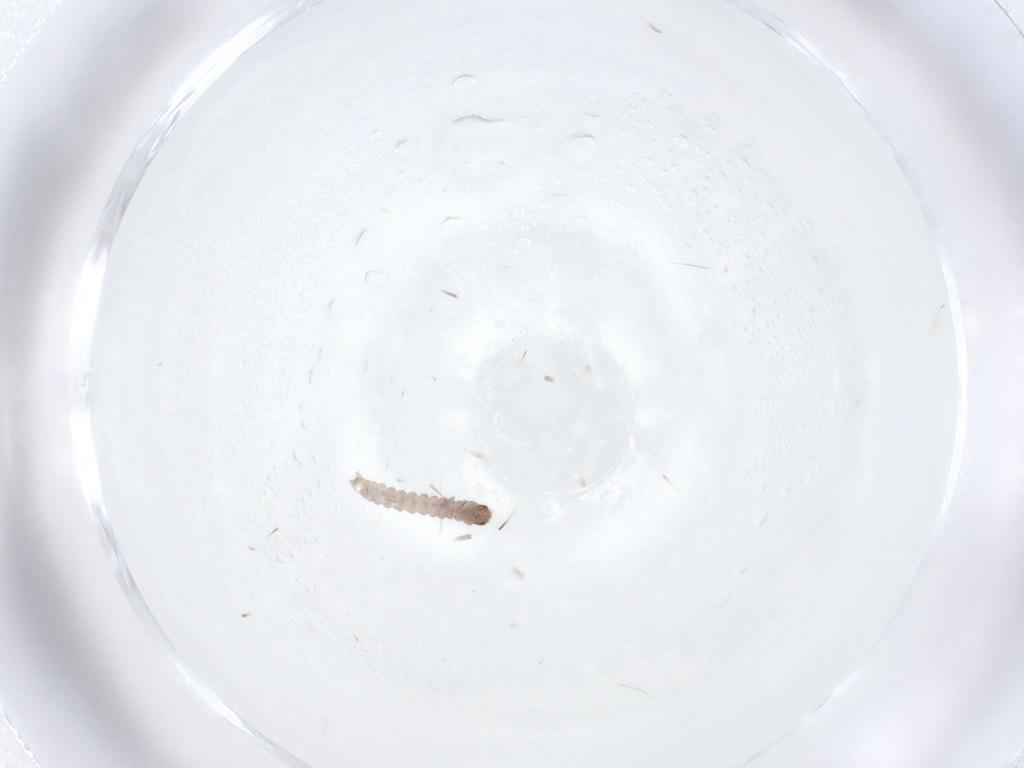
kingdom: Animalia
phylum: Arthropoda
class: Insecta
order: Lepidoptera
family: Gelechiidae
